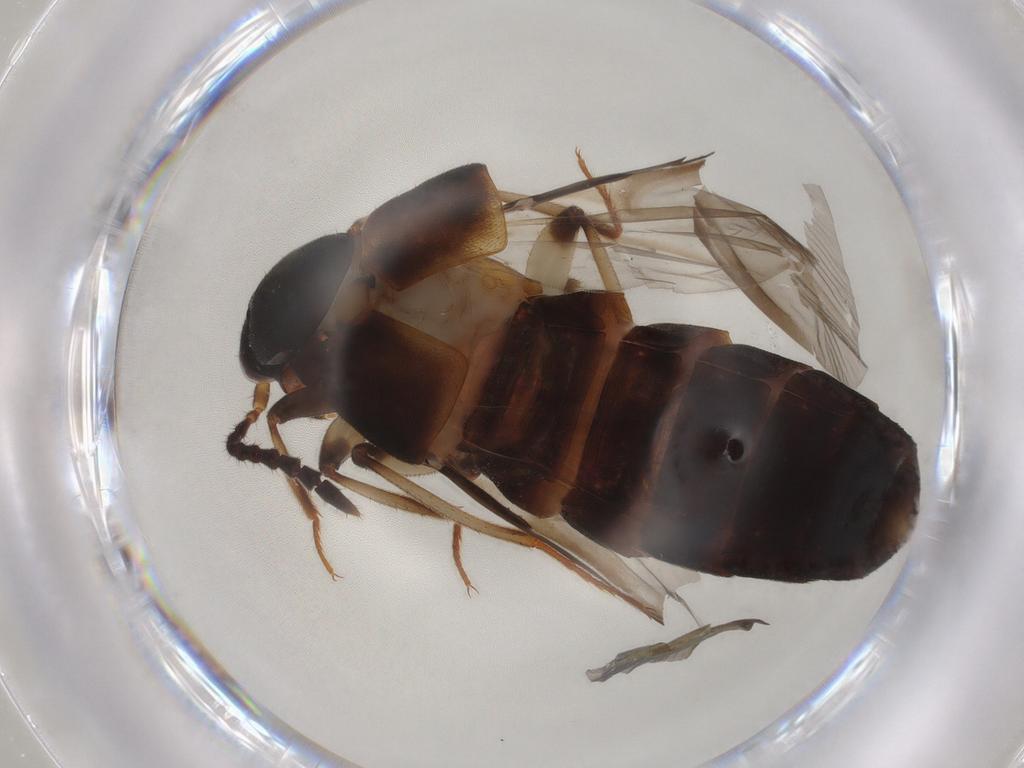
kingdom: Animalia
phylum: Arthropoda
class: Insecta
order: Coleoptera
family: Staphylinidae
